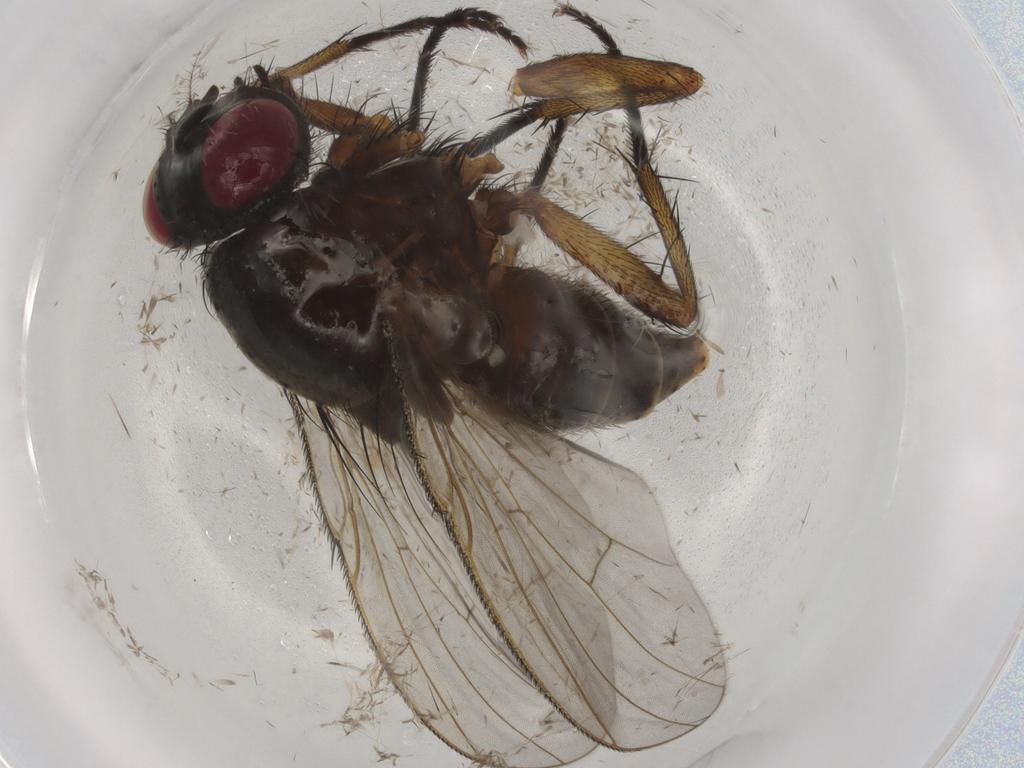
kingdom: Animalia
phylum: Arthropoda
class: Insecta
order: Diptera
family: Muscidae
